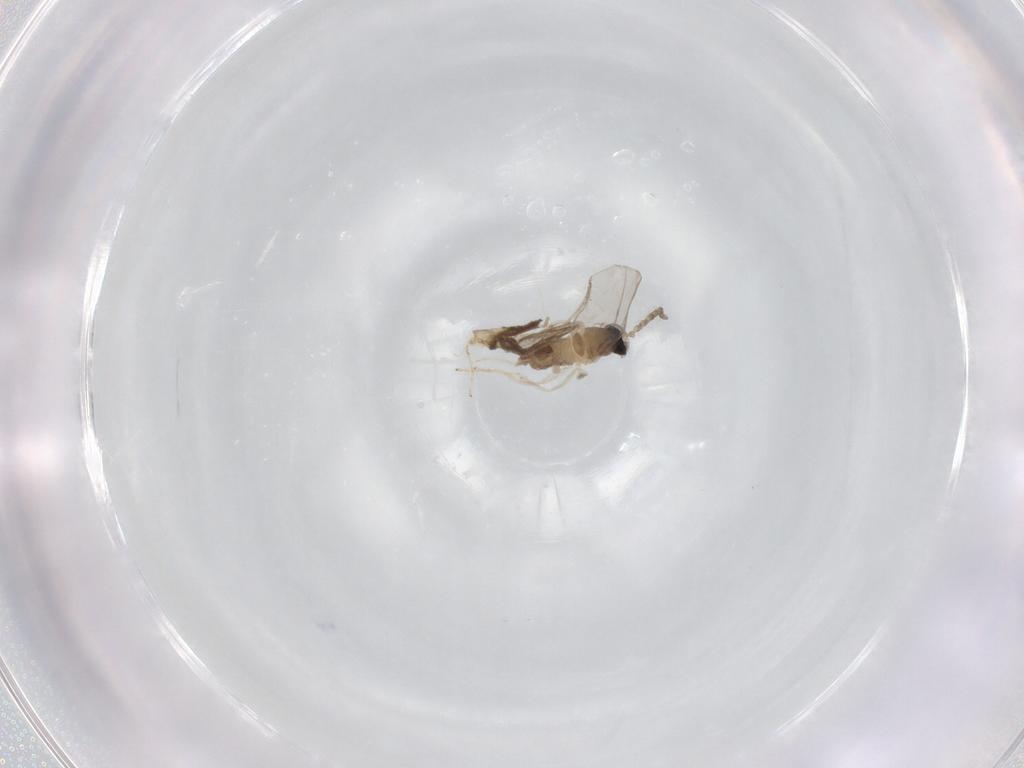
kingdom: Animalia
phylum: Arthropoda
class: Insecta
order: Diptera
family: Cecidomyiidae
